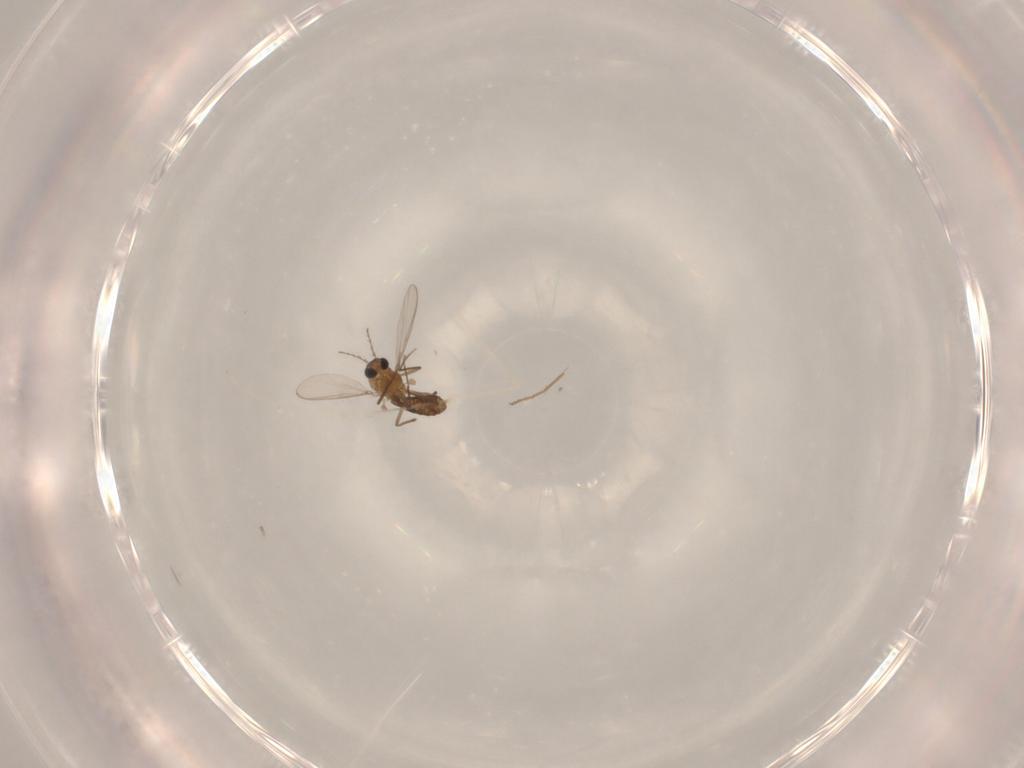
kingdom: Animalia
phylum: Arthropoda
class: Insecta
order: Diptera
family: Chironomidae
